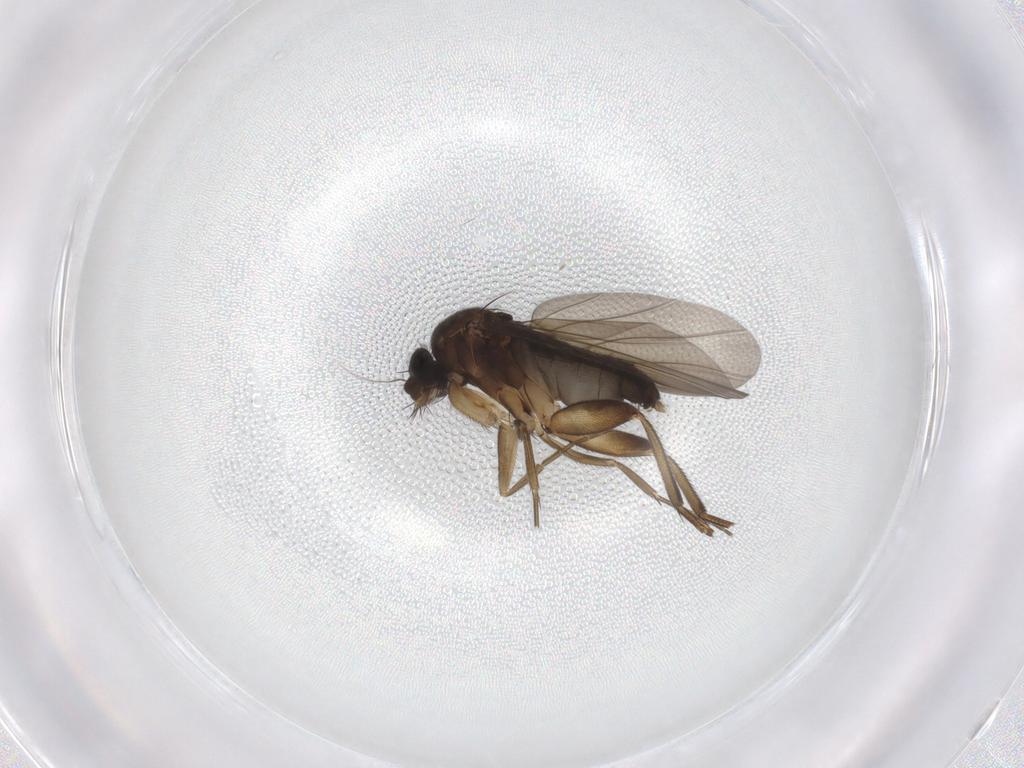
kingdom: Animalia
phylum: Arthropoda
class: Insecta
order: Diptera
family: Phoridae
